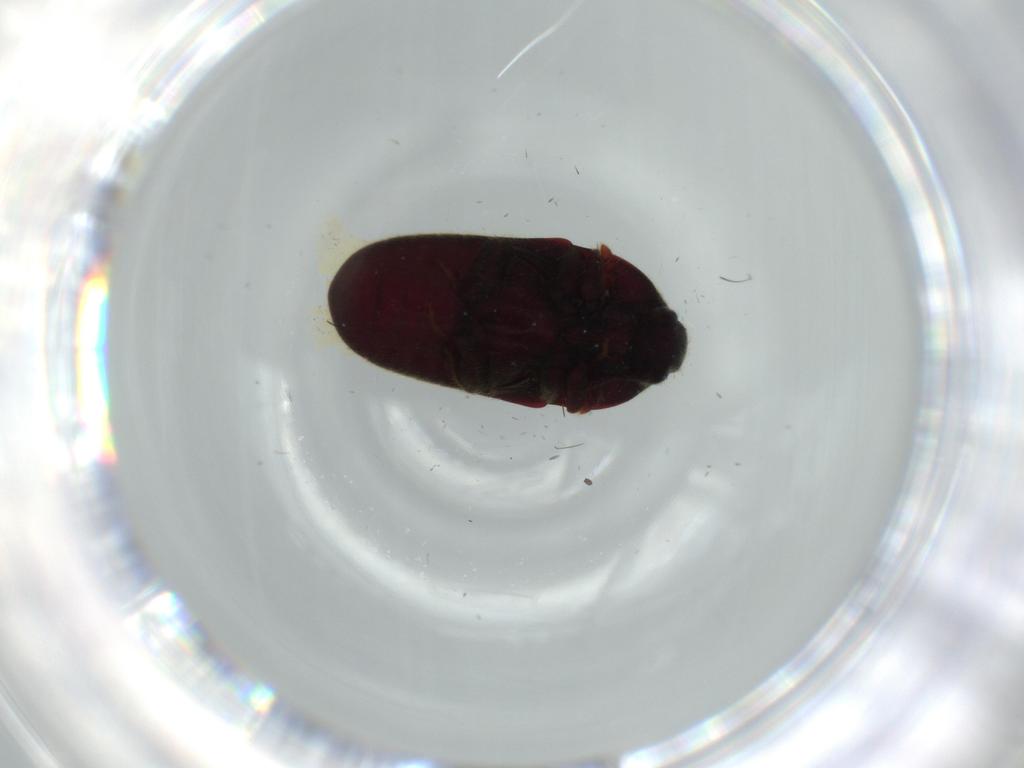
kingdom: Animalia
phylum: Arthropoda
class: Insecta
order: Coleoptera
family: Throscidae
